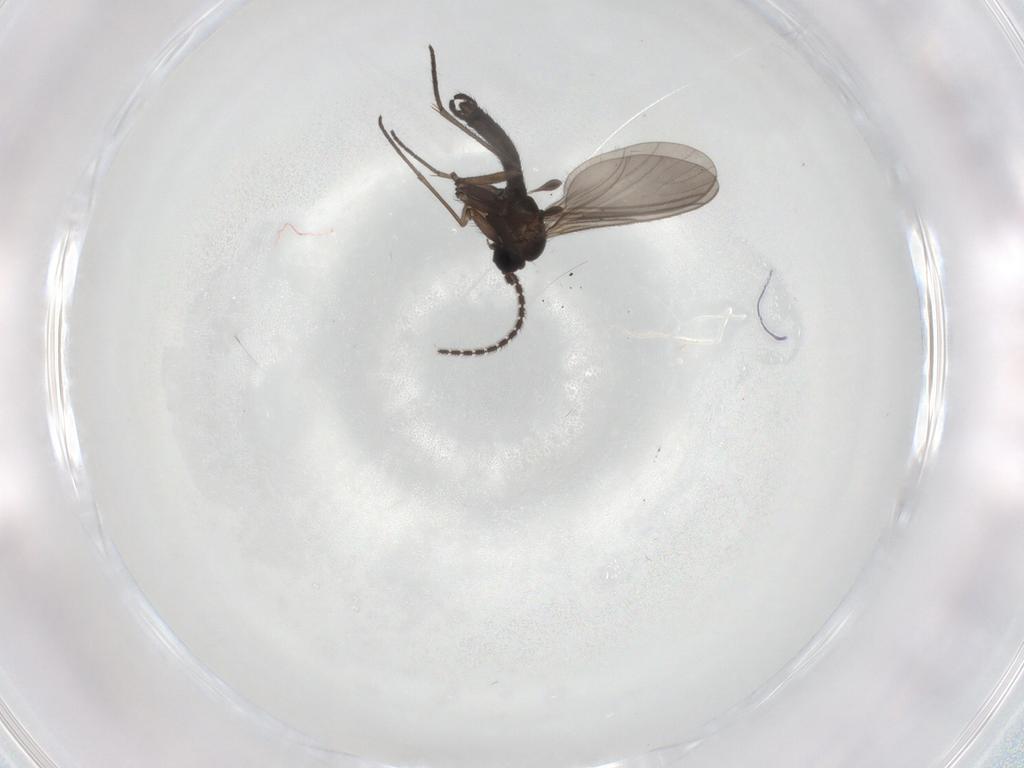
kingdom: Animalia
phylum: Arthropoda
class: Insecta
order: Diptera
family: Sciaridae
